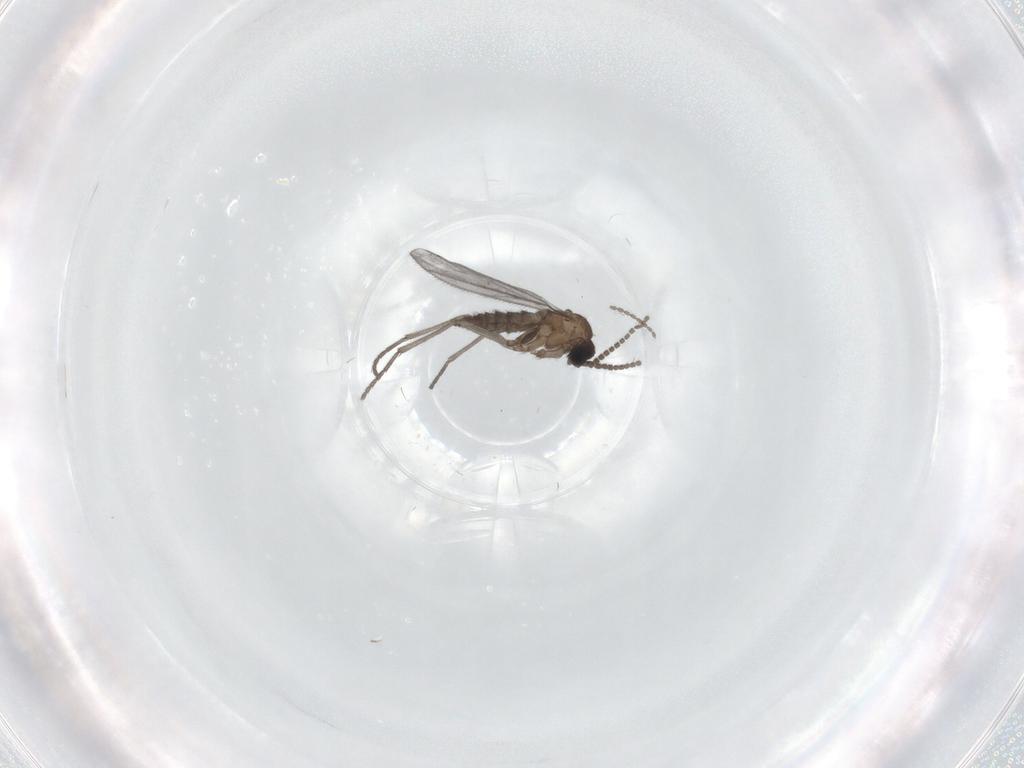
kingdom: Animalia
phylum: Arthropoda
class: Insecta
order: Diptera
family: Sciaridae
